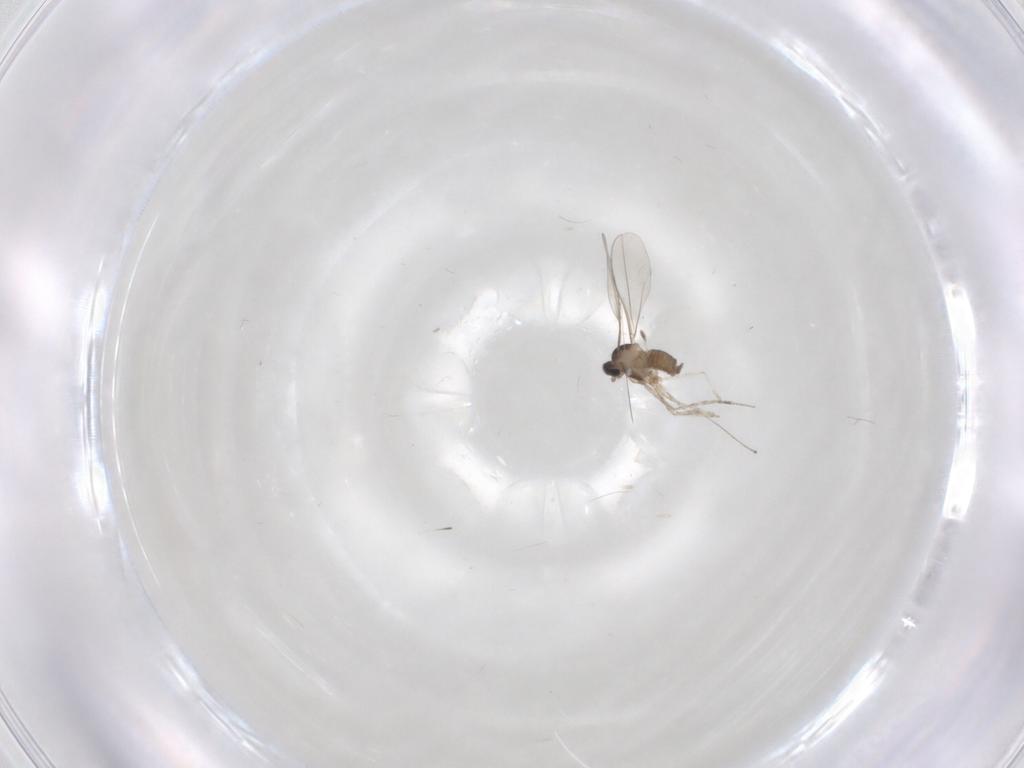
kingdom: Animalia
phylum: Arthropoda
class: Insecta
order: Diptera
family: Ceratopogonidae
